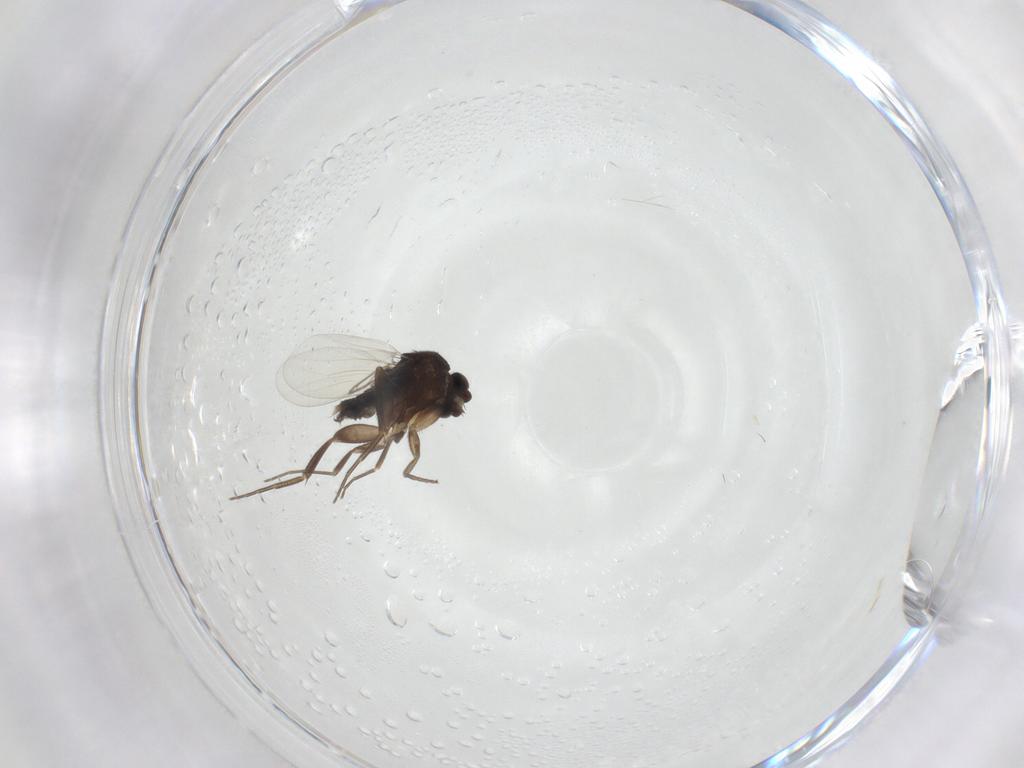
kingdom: Animalia
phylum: Arthropoda
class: Insecta
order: Diptera
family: Phoridae
